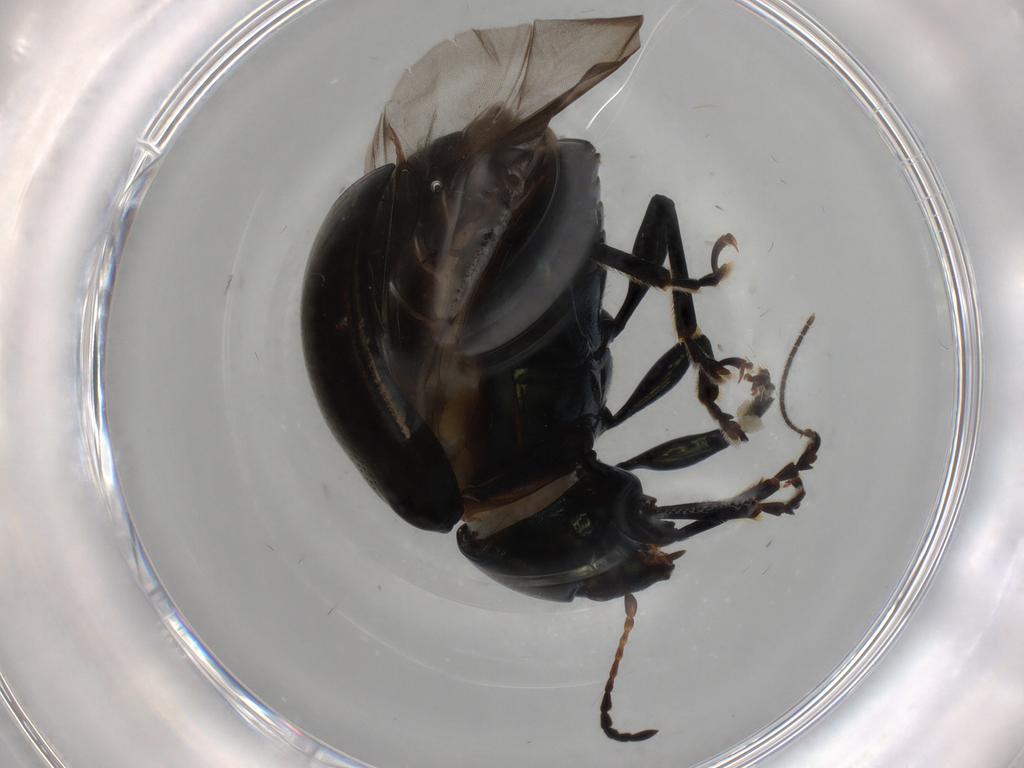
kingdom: Animalia
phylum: Arthropoda
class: Insecta
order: Coleoptera
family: Chrysomelidae
